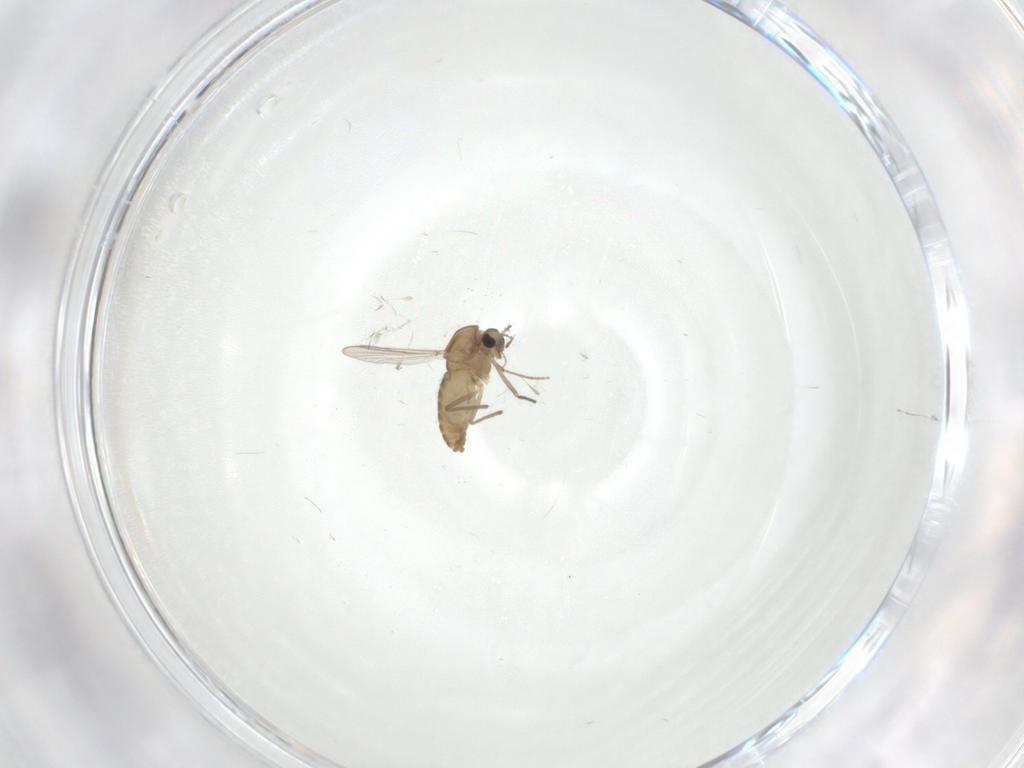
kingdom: Animalia
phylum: Arthropoda
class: Insecta
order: Diptera
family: Chironomidae
